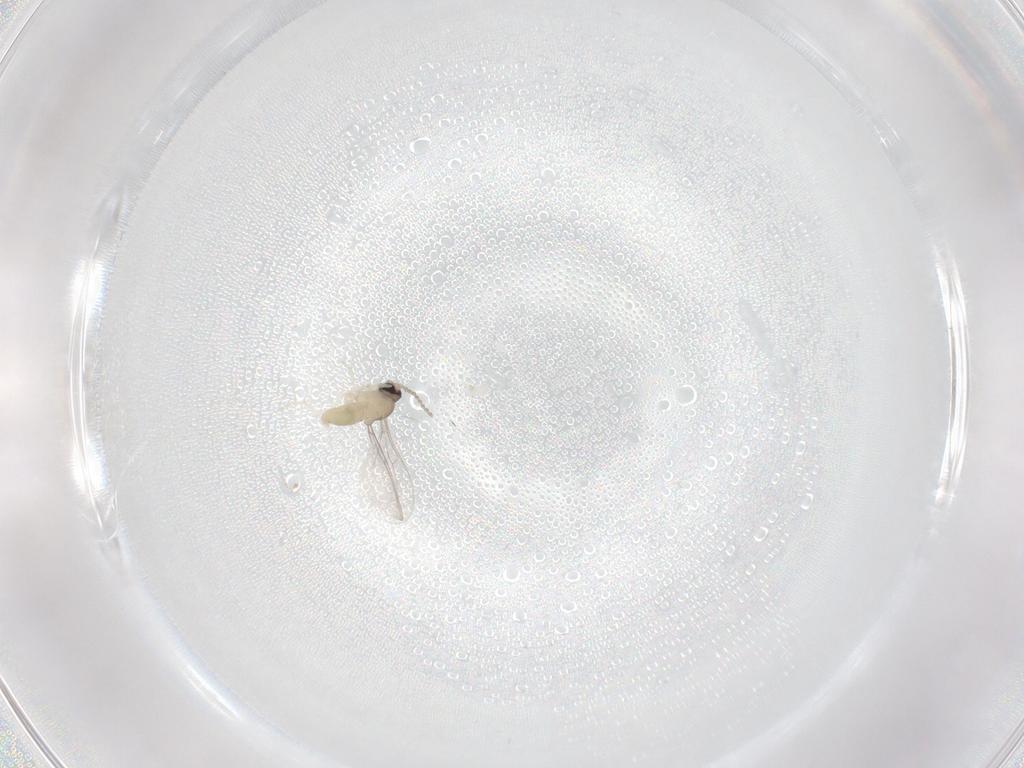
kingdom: Animalia
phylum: Arthropoda
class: Insecta
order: Diptera
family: Cecidomyiidae
